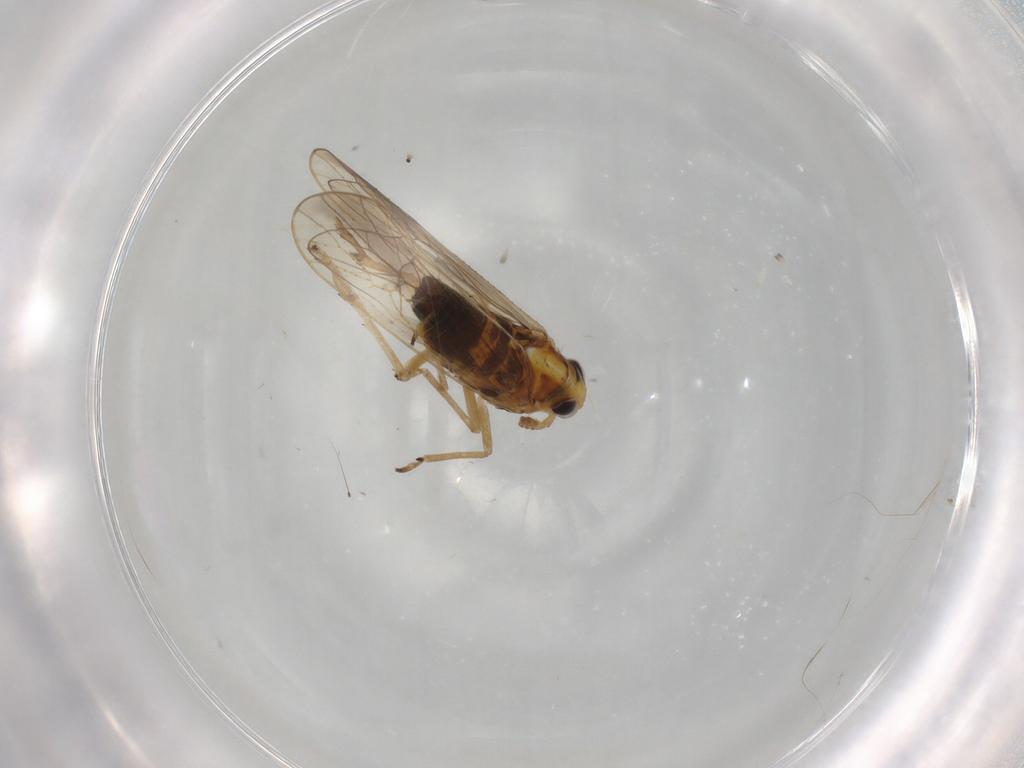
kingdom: Animalia
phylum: Arthropoda
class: Insecta
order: Hemiptera
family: Delphacidae
